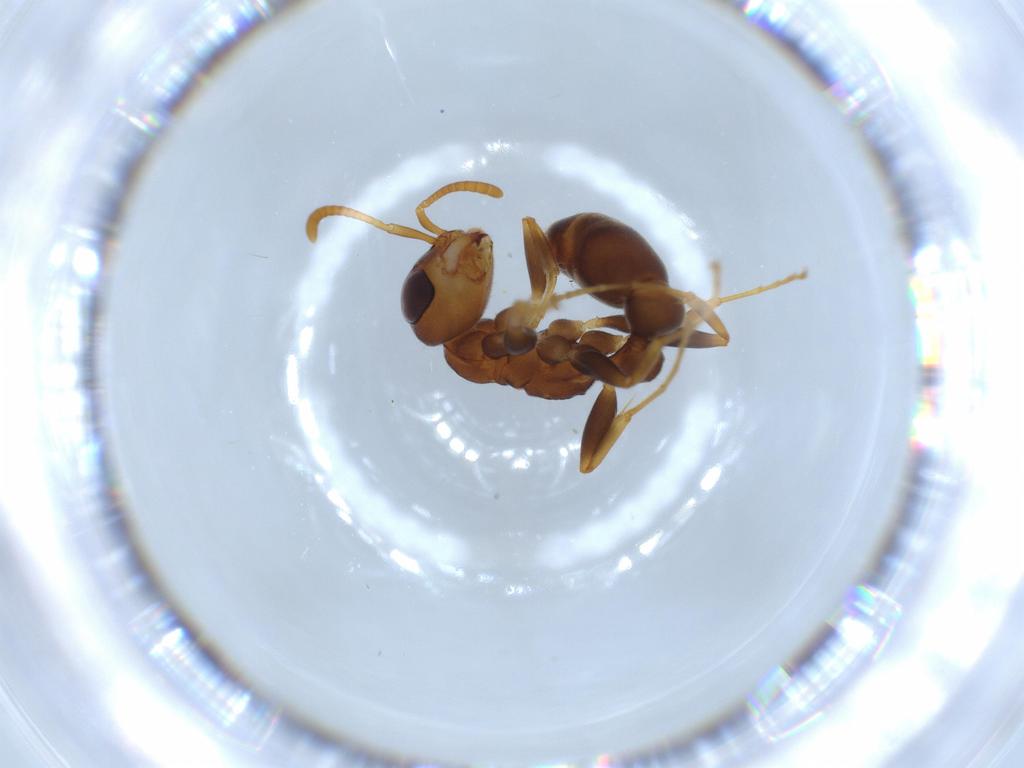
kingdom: Animalia
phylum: Arthropoda
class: Insecta
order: Hymenoptera
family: Formicidae
